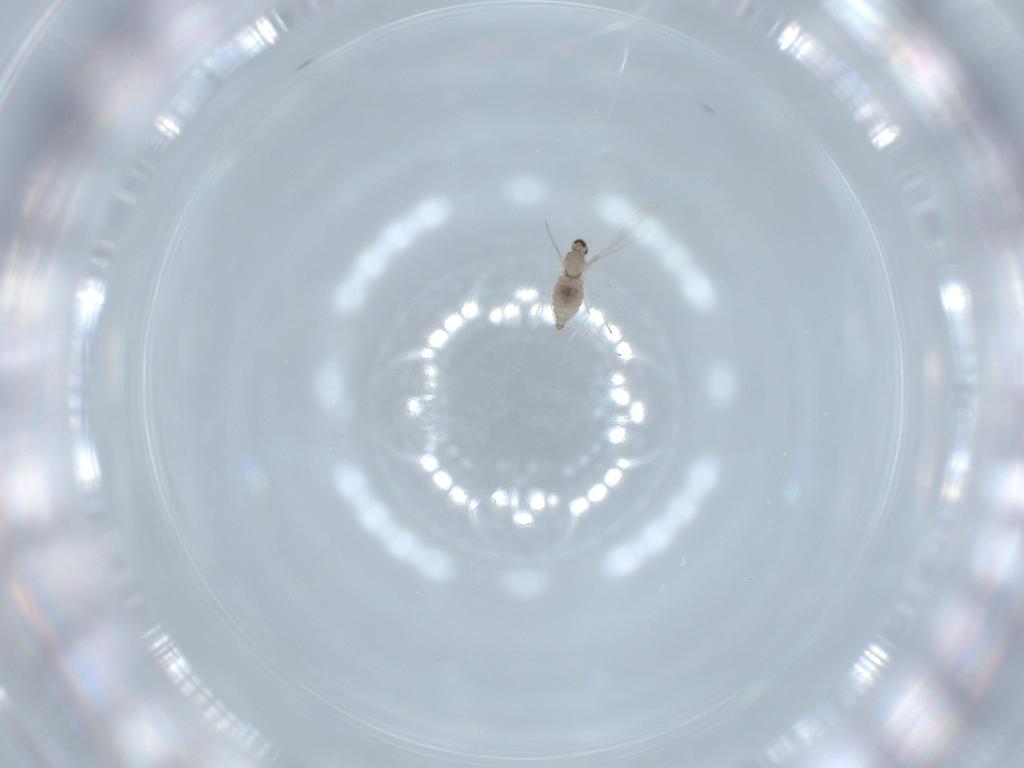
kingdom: Animalia
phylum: Arthropoda
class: Insecta
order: Diptera
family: Cecidomyiidae
